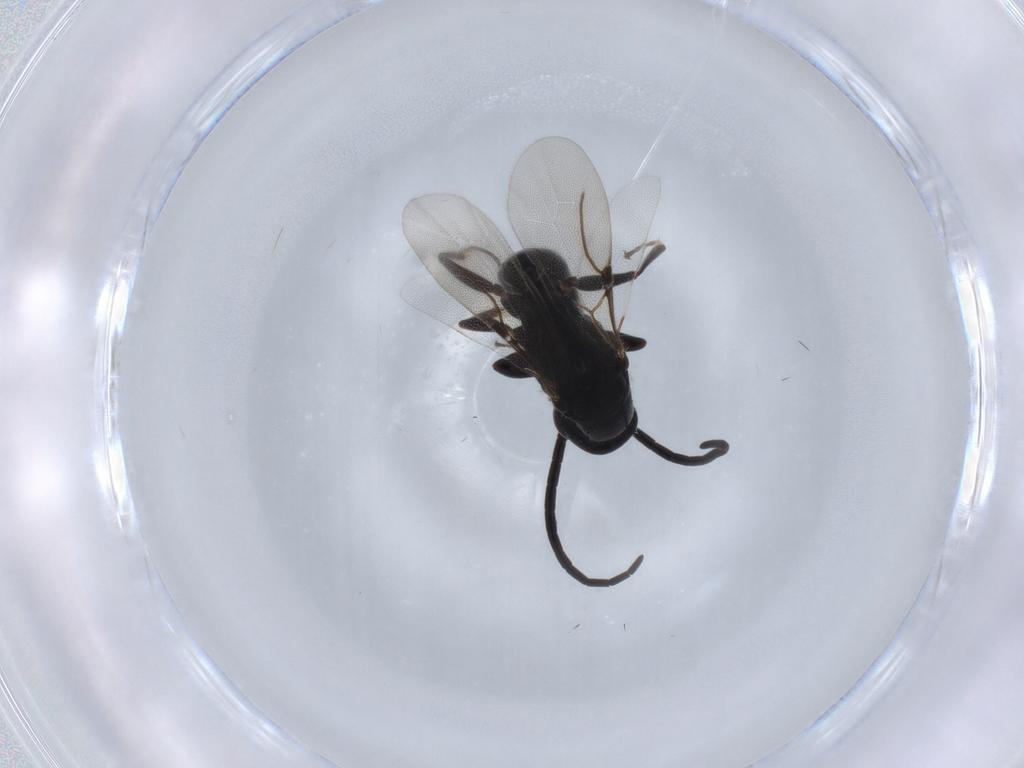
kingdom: Animalia
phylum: Arthropoda
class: Insecta
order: Hymenoptera
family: Bethylidae
